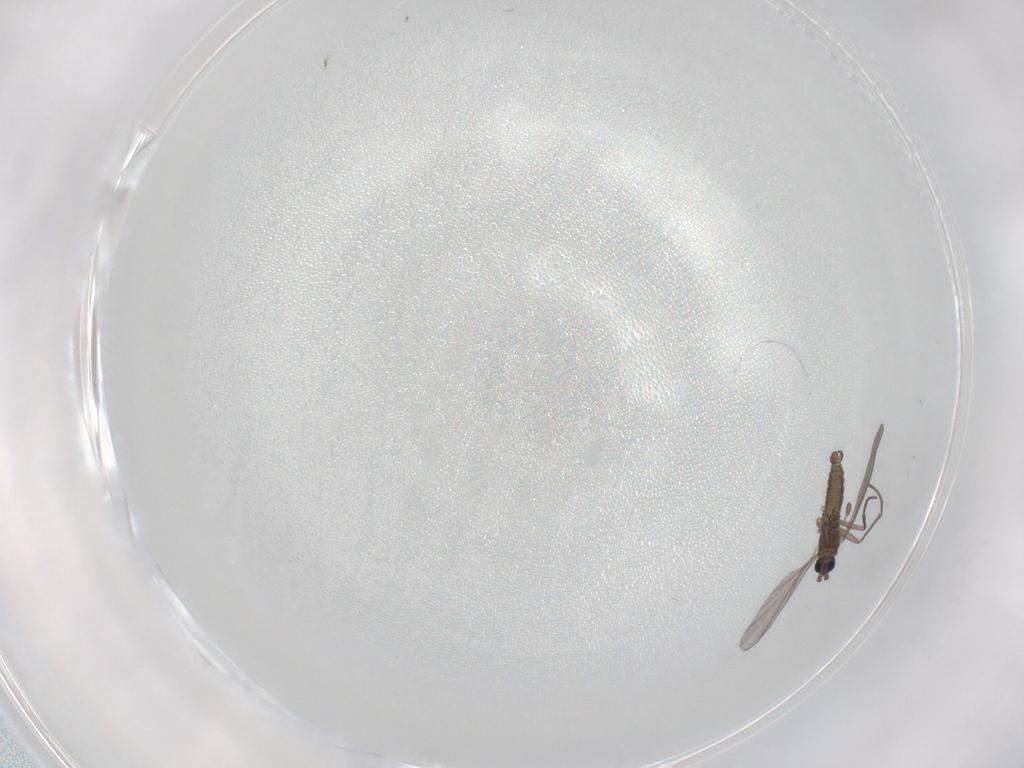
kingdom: Animalia
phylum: Arthropoda
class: Insecta
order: Diptera
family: Sciaridae
